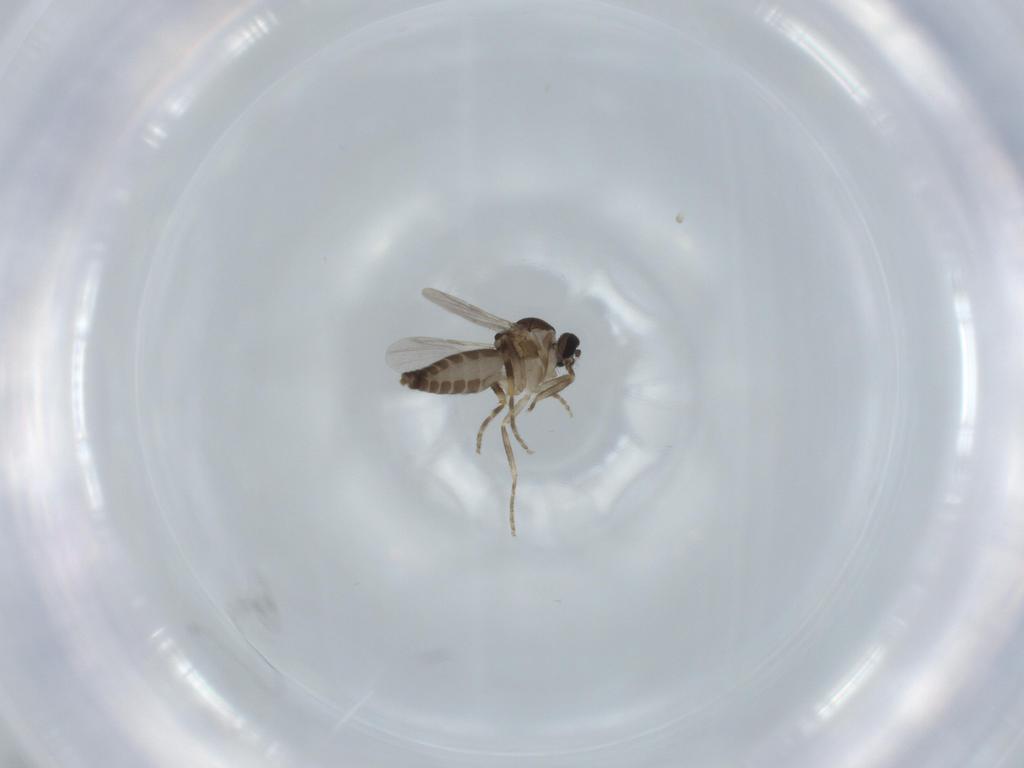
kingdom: Animalia
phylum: Arthropoda
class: Insecta
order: Diptera
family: Ceratopogonidae
